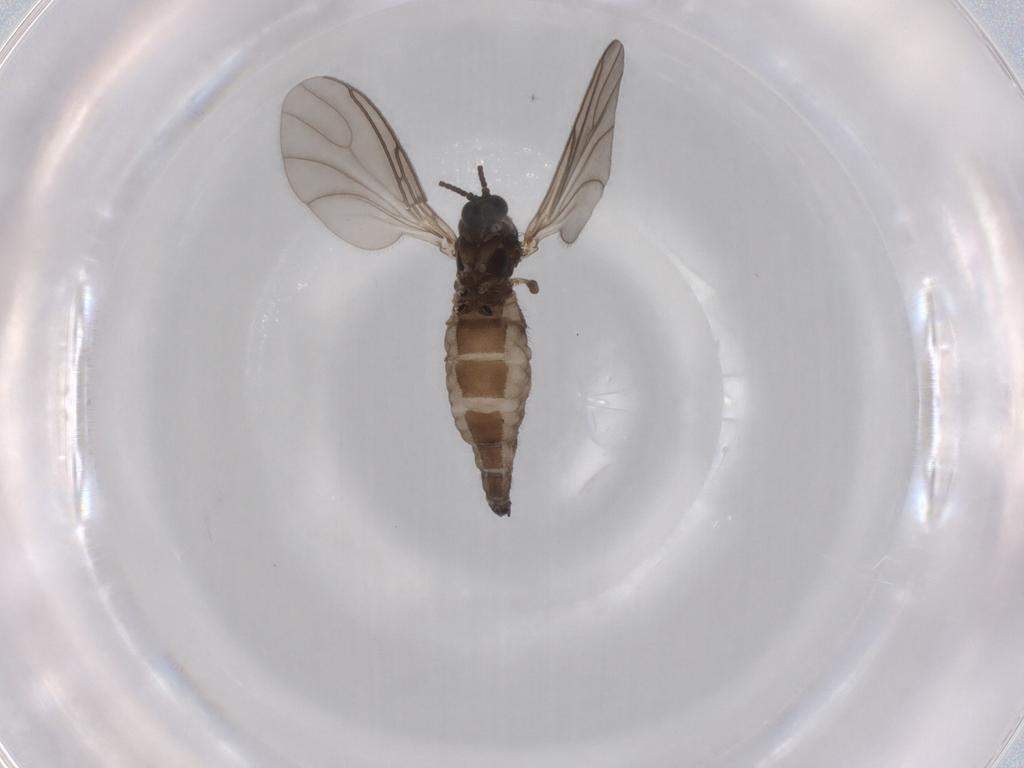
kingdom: Animalia
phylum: Arthropoda
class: Insecta
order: Diptera
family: Sciaridae
